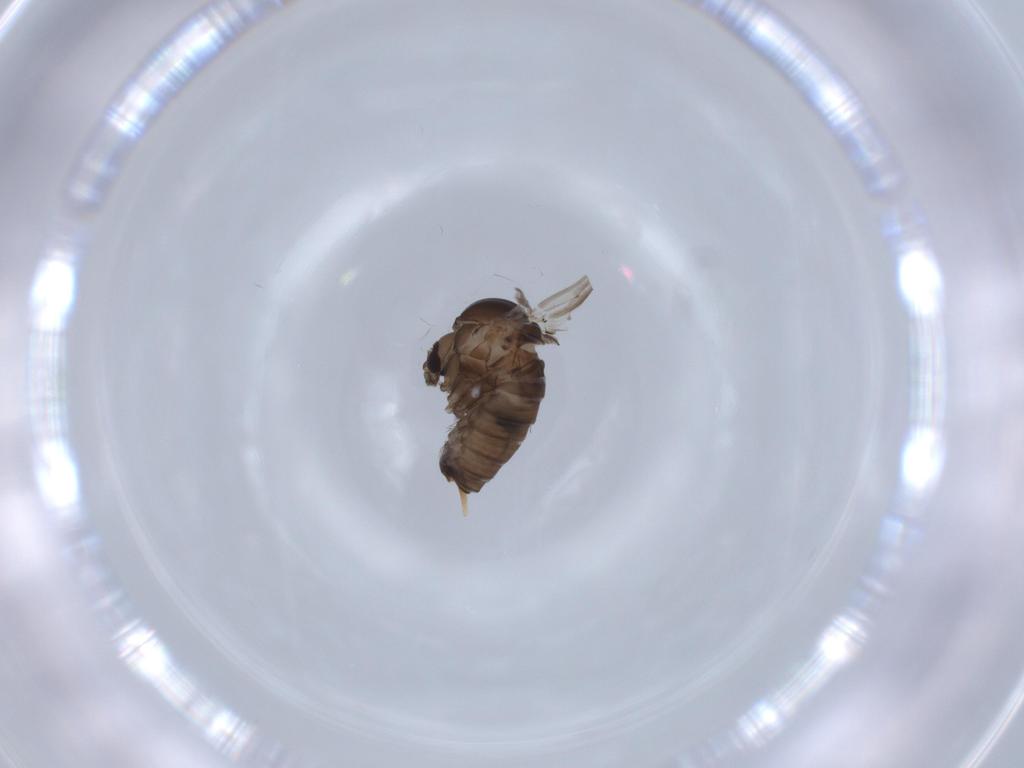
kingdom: Animalia
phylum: Arthropoda
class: Insecta
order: Diptera
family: Psychodidae
